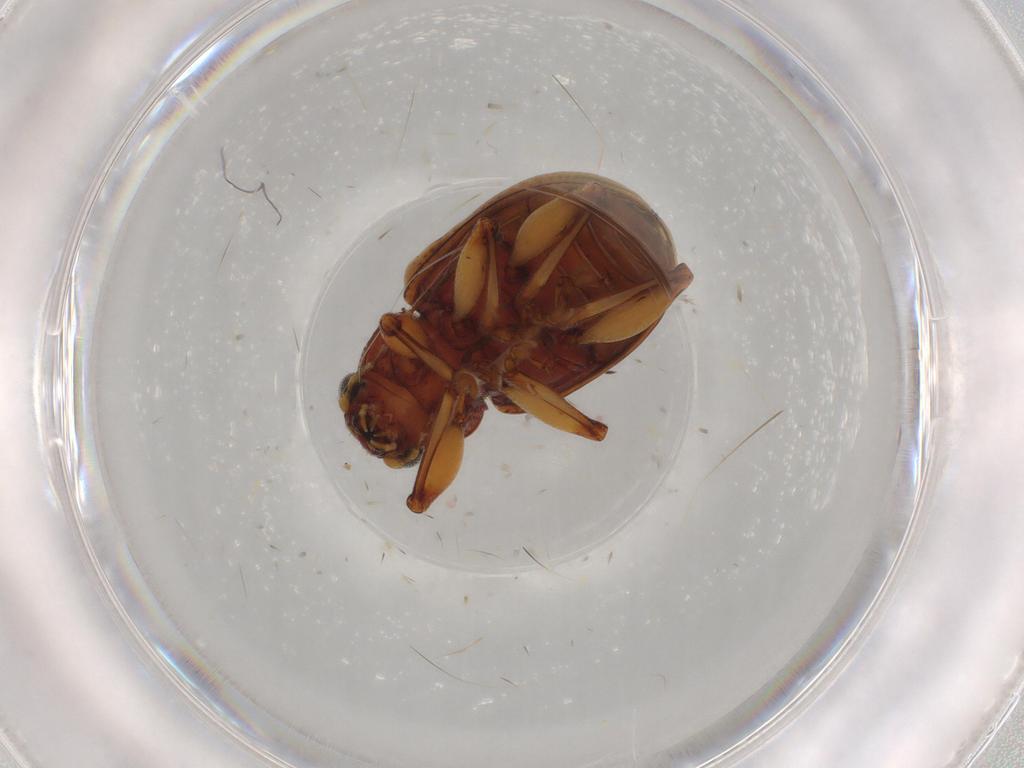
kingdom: Animalia
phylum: Arthropoda
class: Insecta
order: Coleoptera
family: Chrysomelidae
